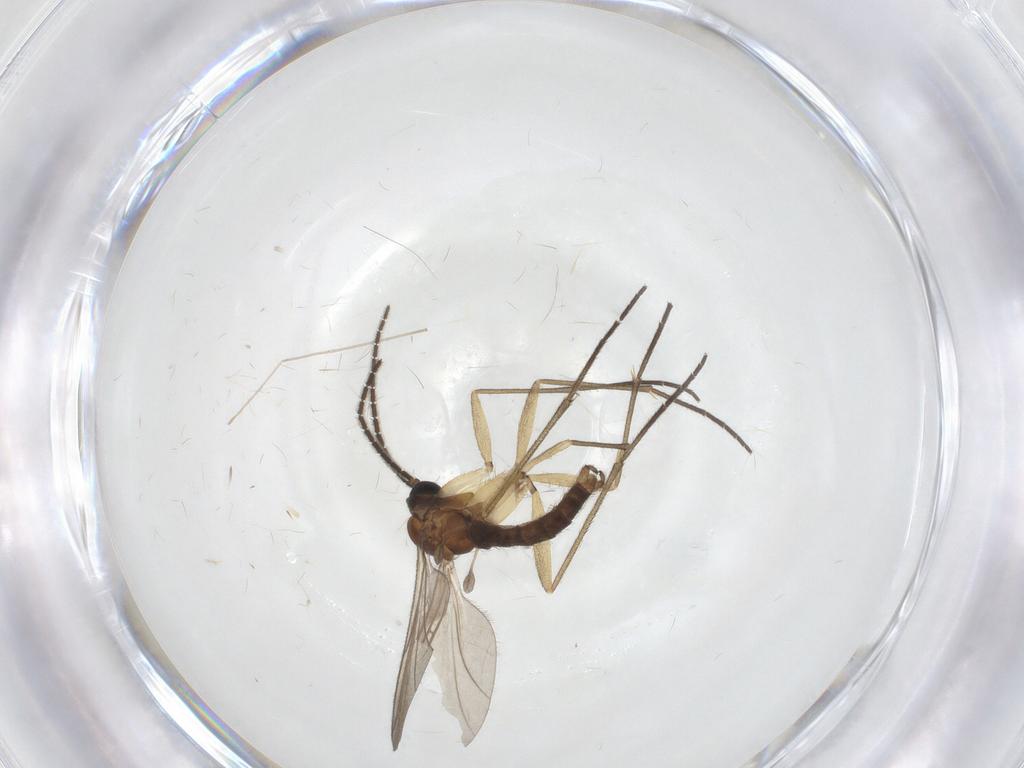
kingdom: Animalia
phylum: Arthropoda
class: Insecta
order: Diptera
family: Sciaridae
